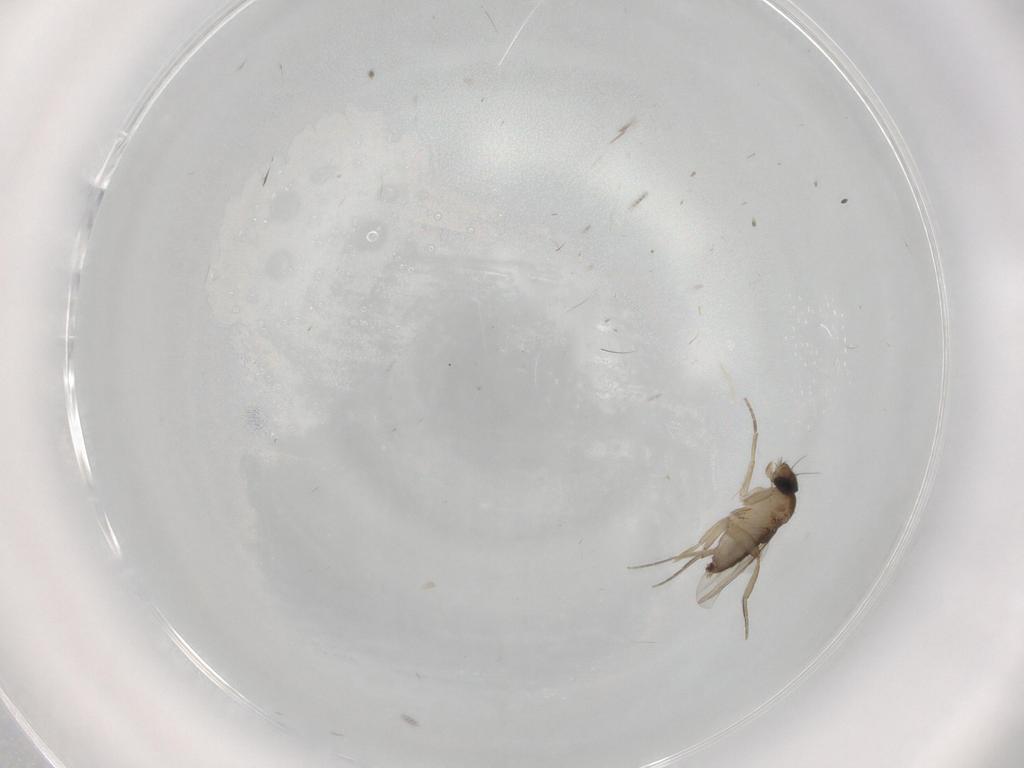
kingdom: Animalia
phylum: Arthropoda
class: Insecta
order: Diptera
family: Phoridae
